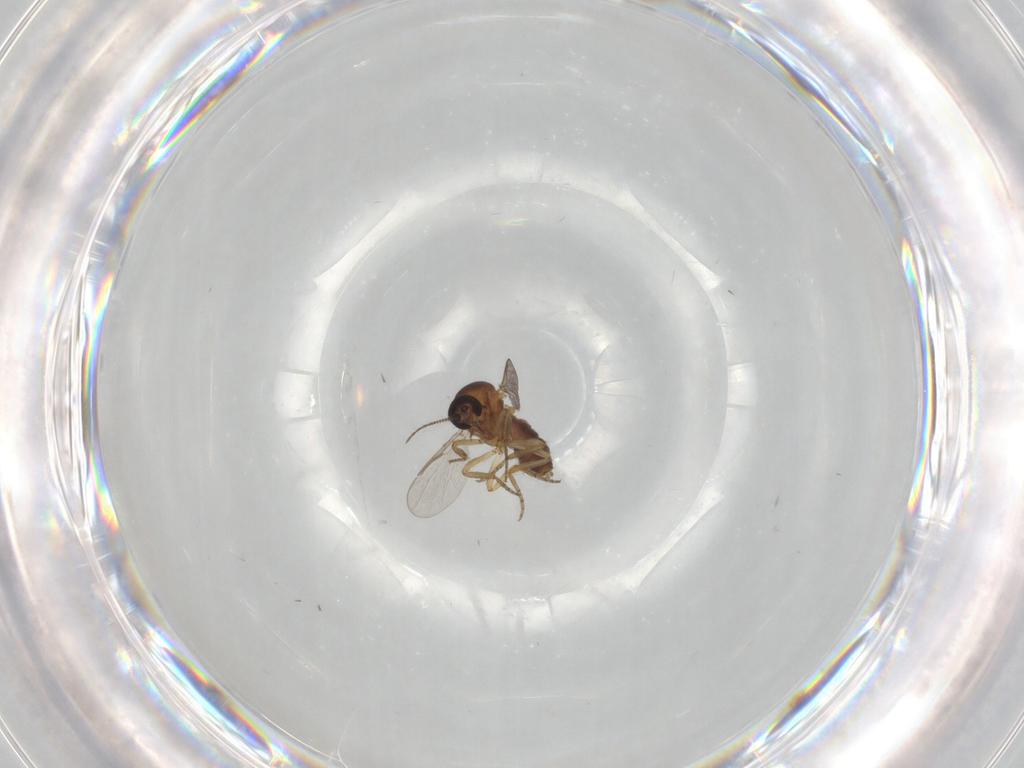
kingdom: Animalia
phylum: Arthropoda
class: Insecta
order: Diptera
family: Ceratopogonidae
